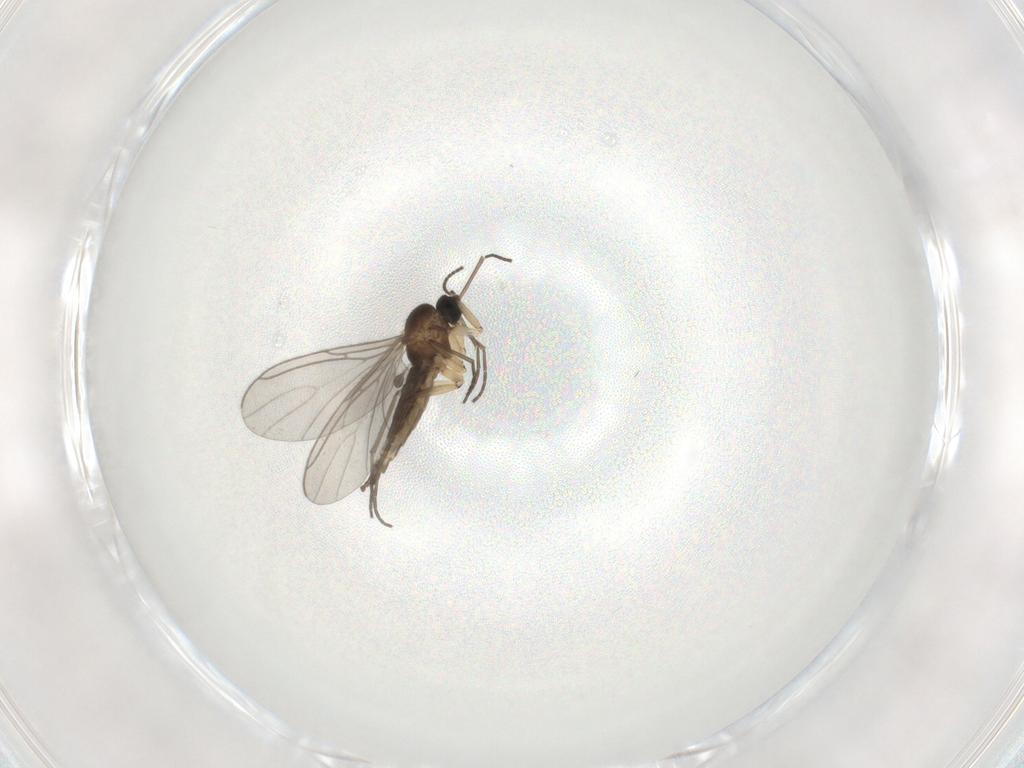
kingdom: Animalia
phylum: Arthropoda
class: Insecta
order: Diptera
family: Sciaridae
